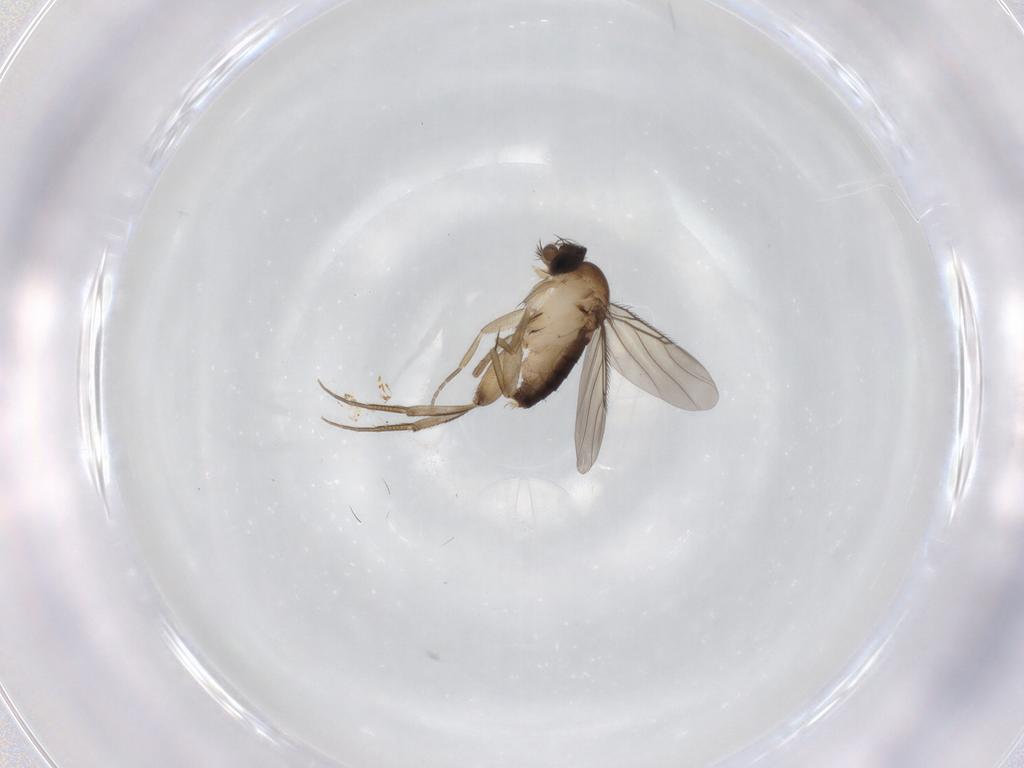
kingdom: Animalia
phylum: Arthropoda
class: Insecta
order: Diptera
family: Phoridae
